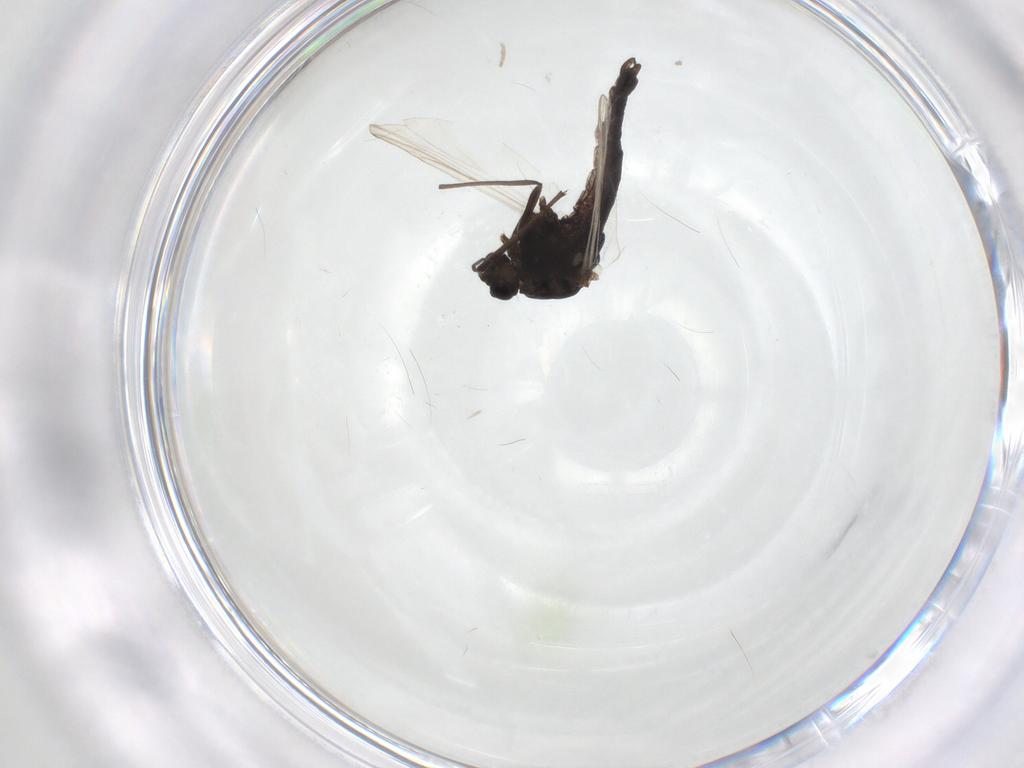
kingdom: Animalia
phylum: Arthropoda
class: Insecta
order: Diptera
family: Chironomidae
